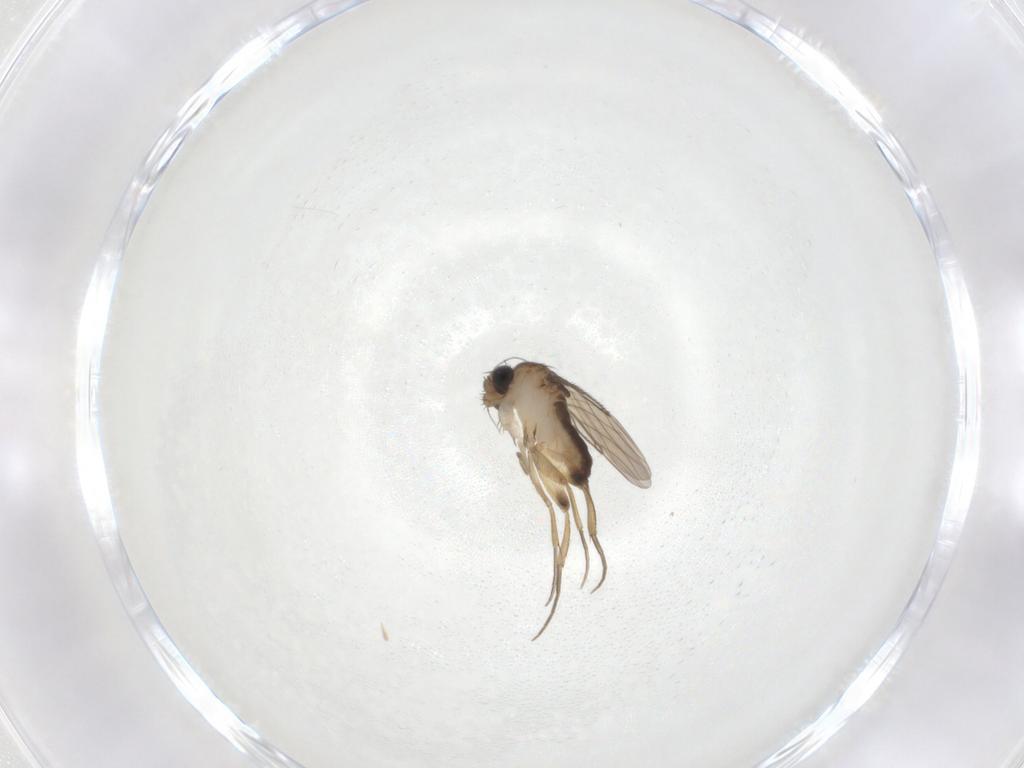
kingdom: Animalia
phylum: Arthropoda
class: Insecta
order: Diptera
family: Phoridae
